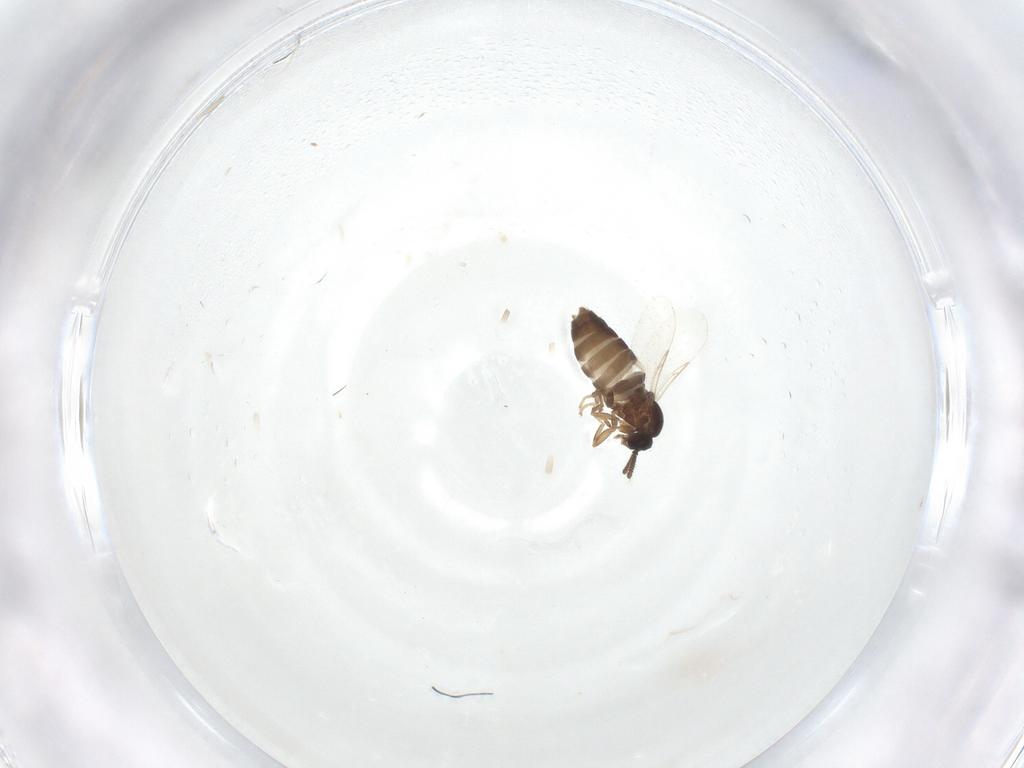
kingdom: Animalia
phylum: Arthropoda
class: Insecta
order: Diptera
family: Scatopsidae
